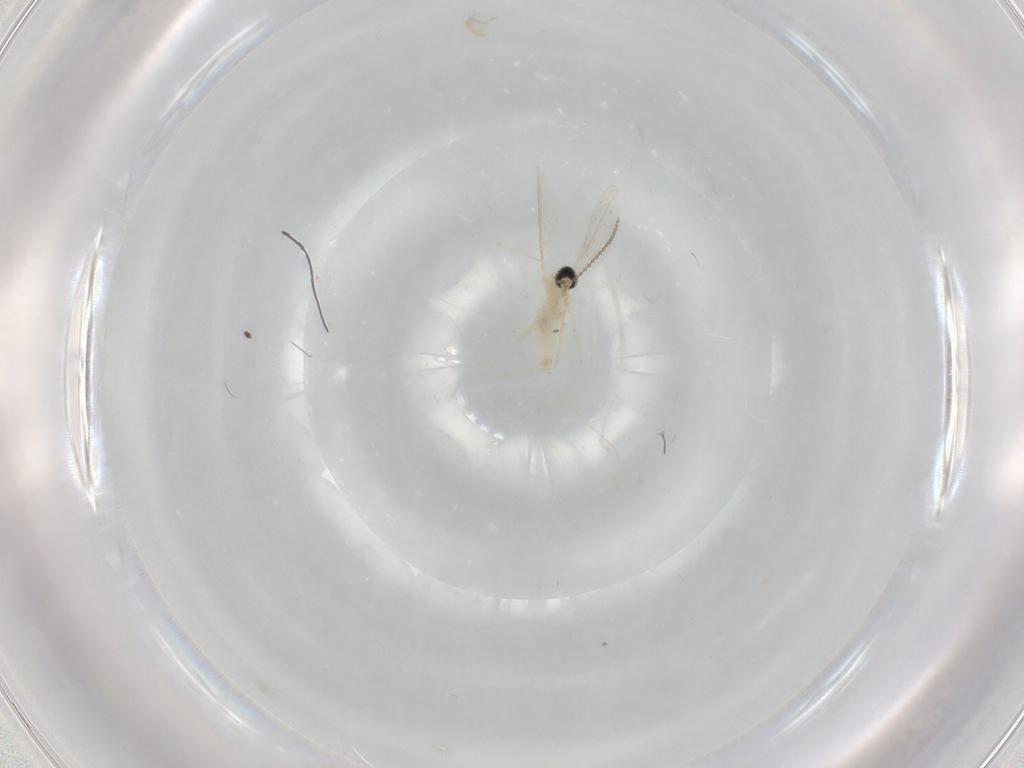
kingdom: Animalia
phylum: Arthropoda
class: Insecta
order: Diptera
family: Cecidomyiidae
